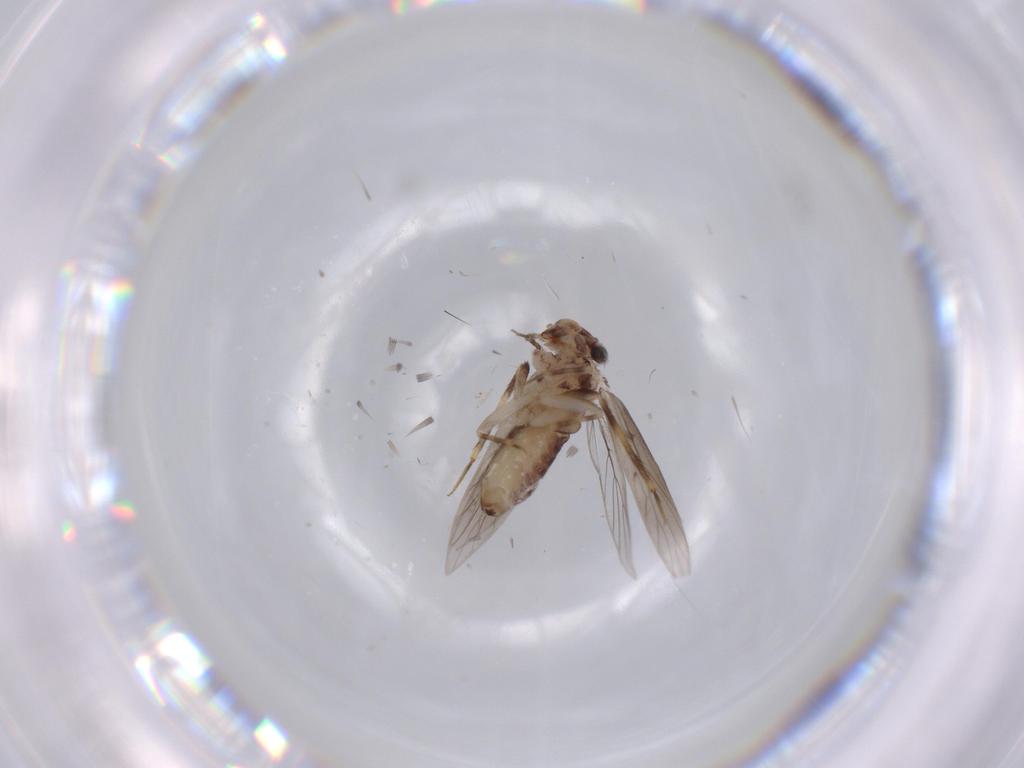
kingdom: Animalia
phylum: Arthropoda
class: Insecta
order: Psocodea
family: Lepidopsocidae
